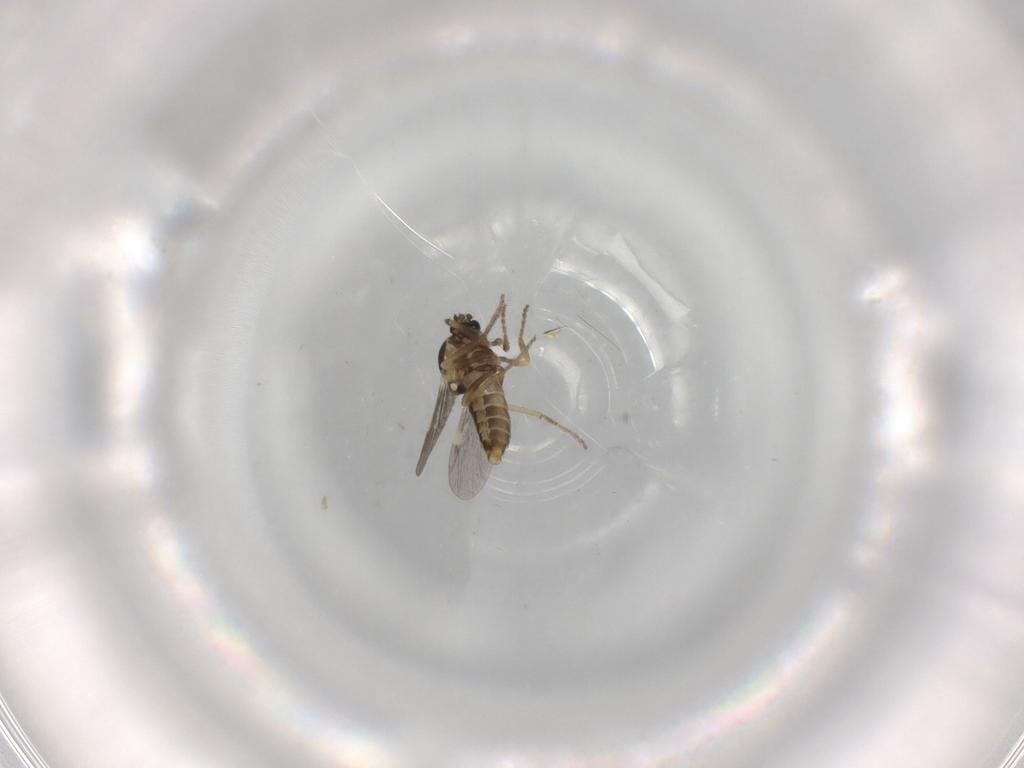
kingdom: Animalia
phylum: Arthropoda
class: Insecta
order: Diptera
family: Ceratopogonidae
